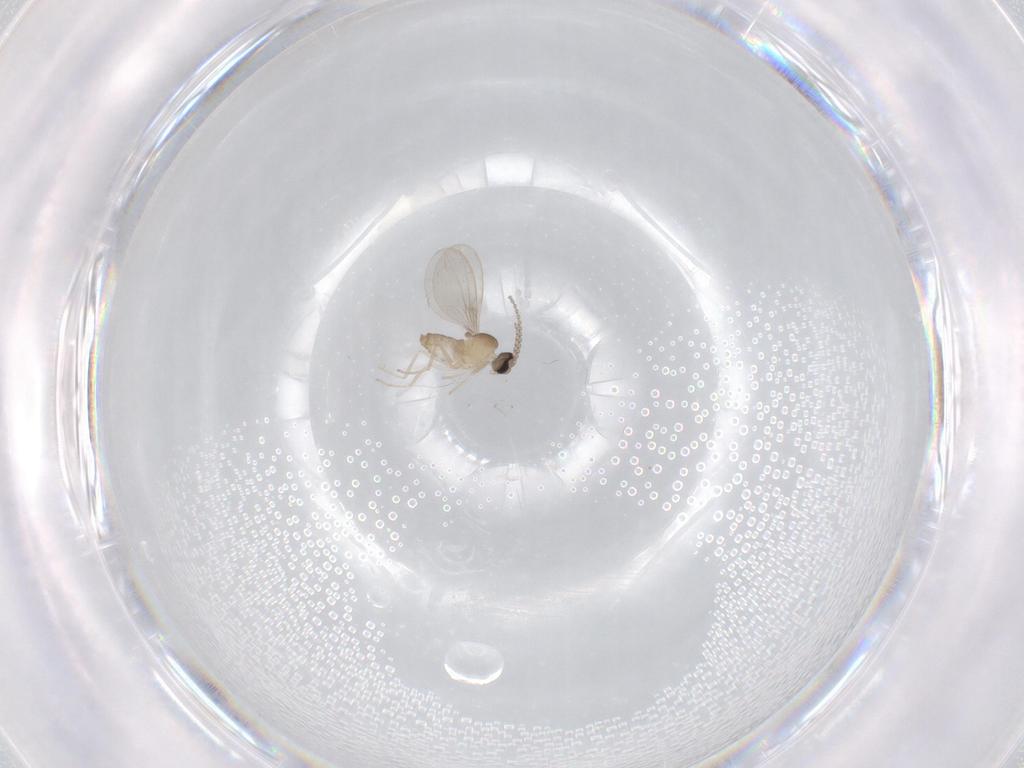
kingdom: Animalia
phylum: Arthropoda
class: Insecta
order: Diptera
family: Cecidomyiidae
